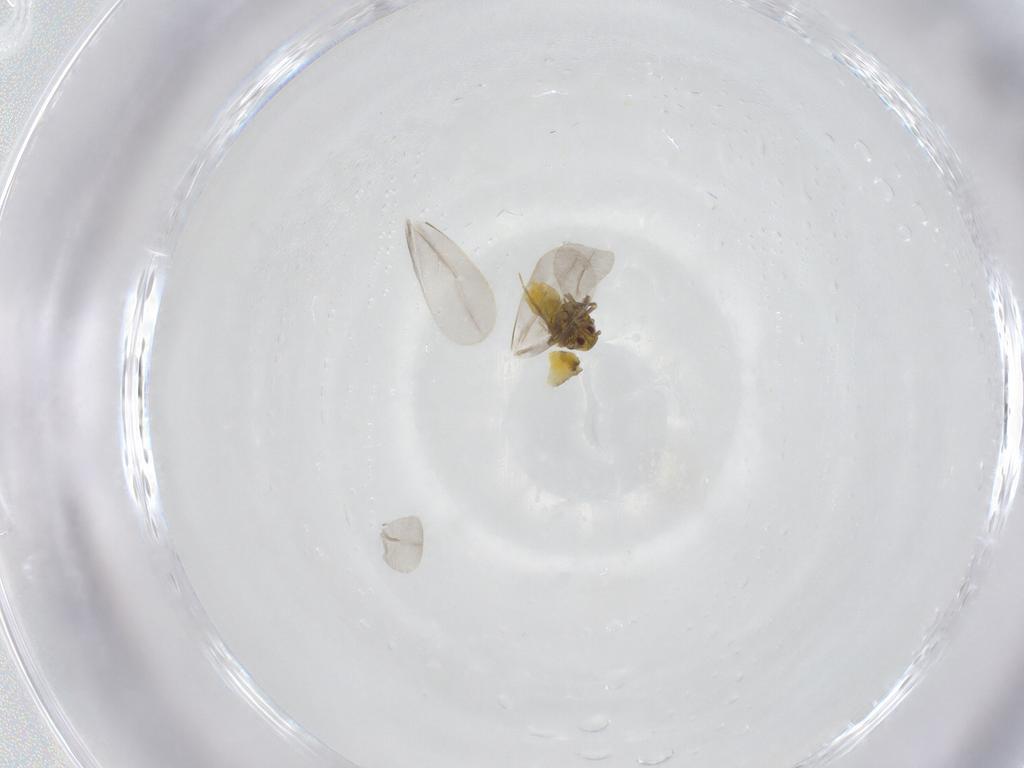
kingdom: Animalia
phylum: Arthropoda
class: Insecta
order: Hemiptera
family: Aleyrodidae
